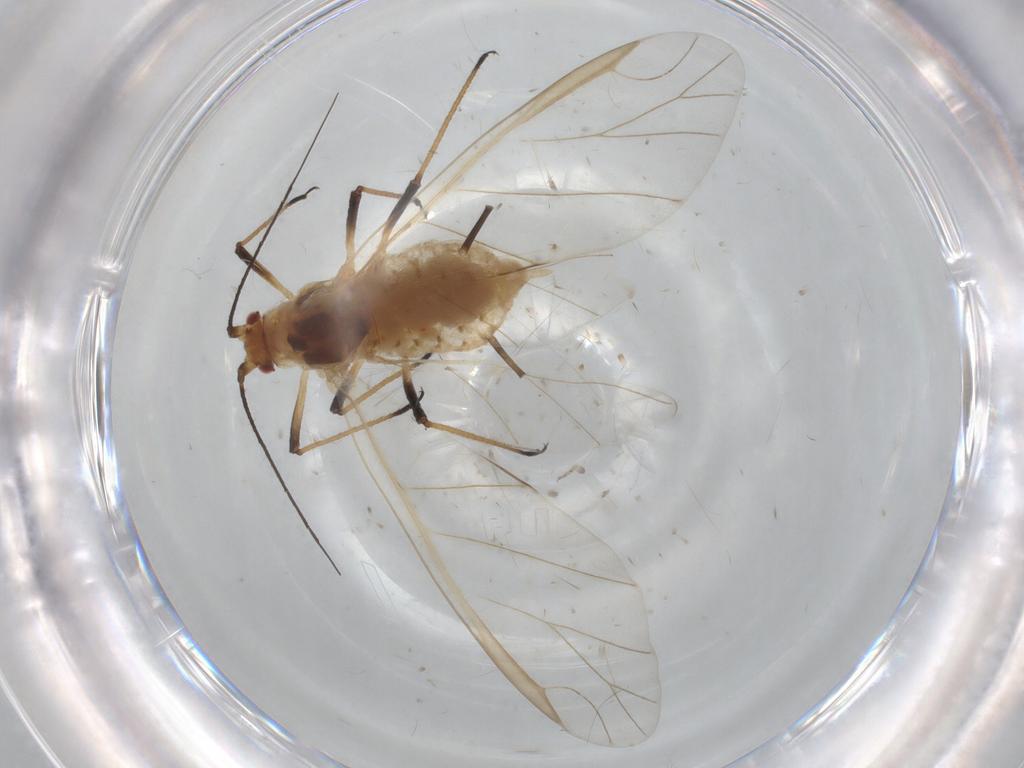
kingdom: Animalia
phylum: Arthropoda
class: Insecta
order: Hemiptera
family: Aphididae
